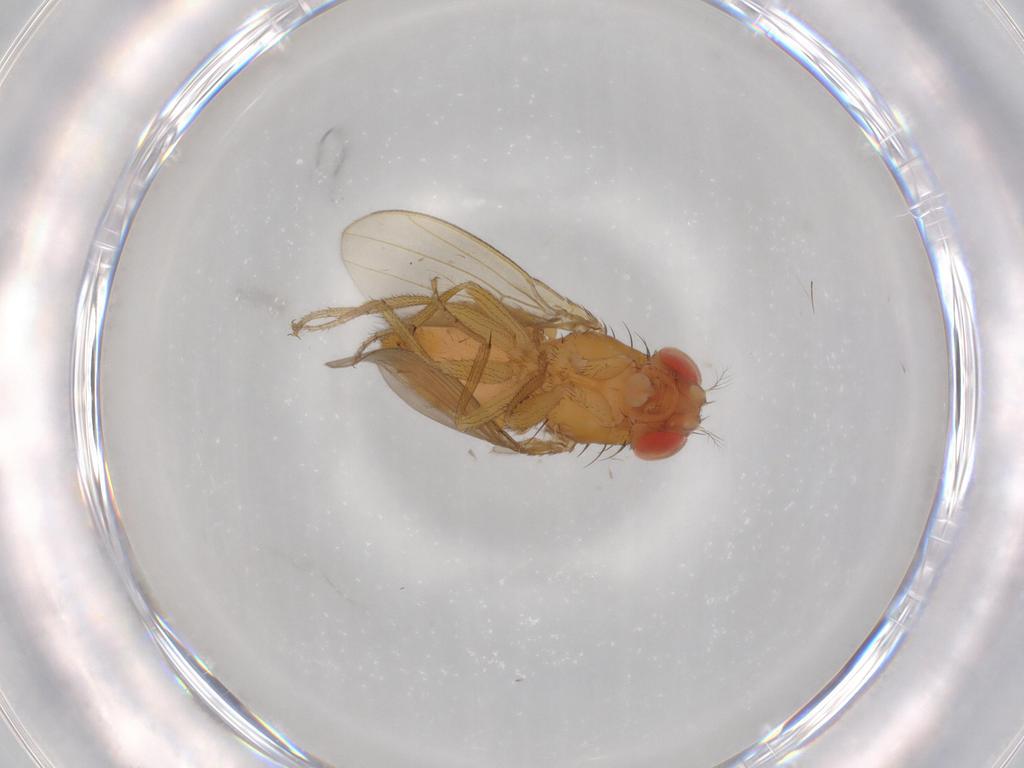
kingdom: Animalia
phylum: Arthropoda
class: Insecta
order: Diptera
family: Drosophilidae
